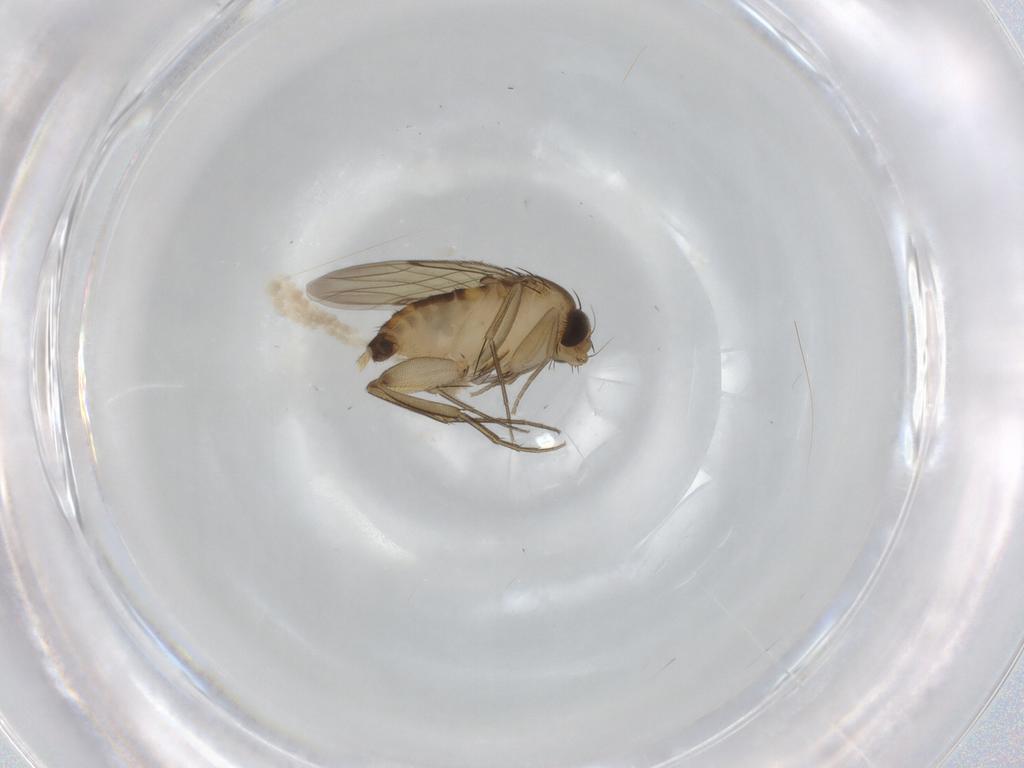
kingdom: Animalia
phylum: Arthropoda
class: Insecta
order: Diptera
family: Phoridae
